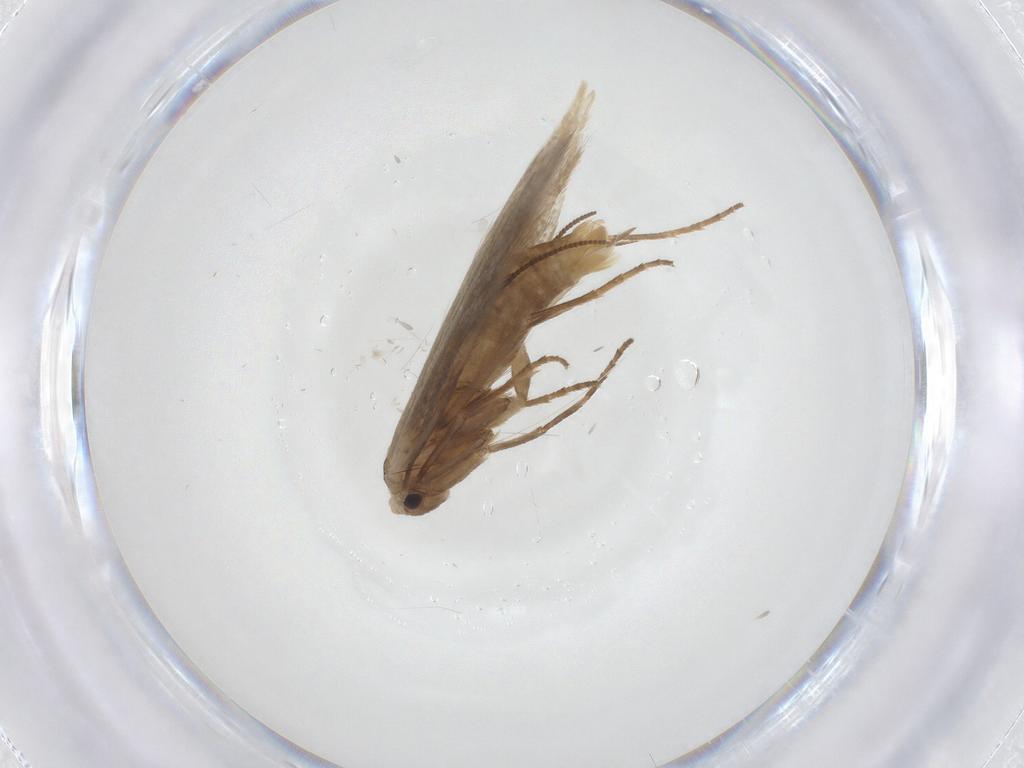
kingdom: Animalia
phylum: Arthropoda
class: Insecta
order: Lepidoptera
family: Bucculatricidae
